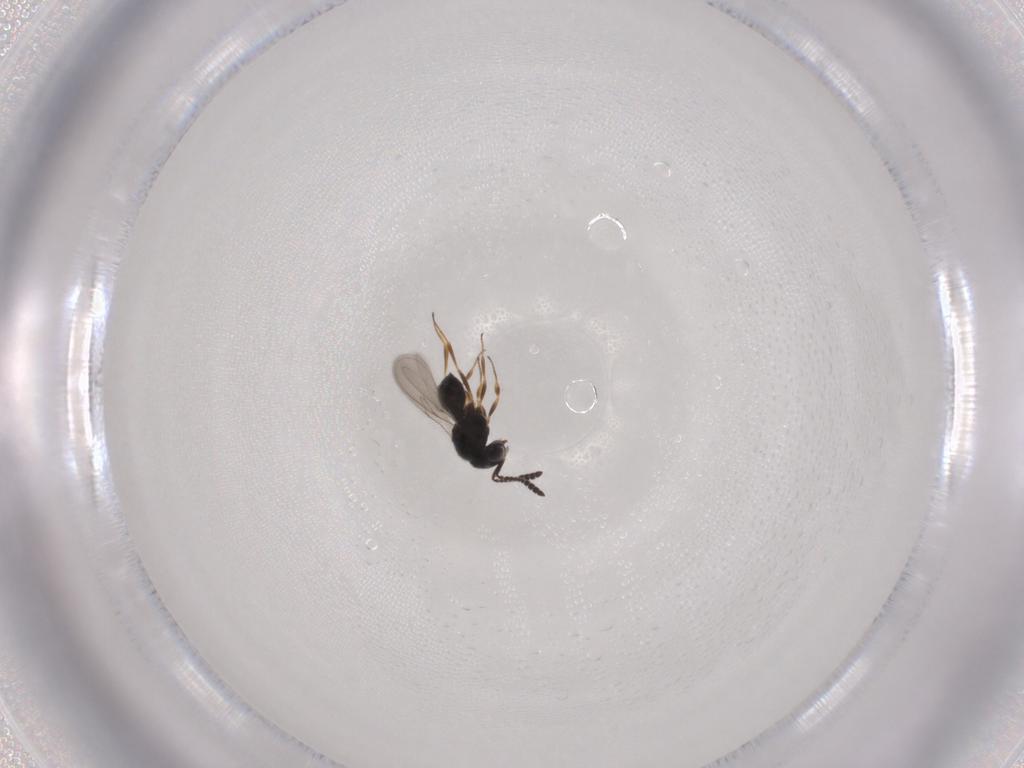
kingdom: Animalia
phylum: Arthropoda
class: Insecta
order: Hymenoptera
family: Scelionidae
